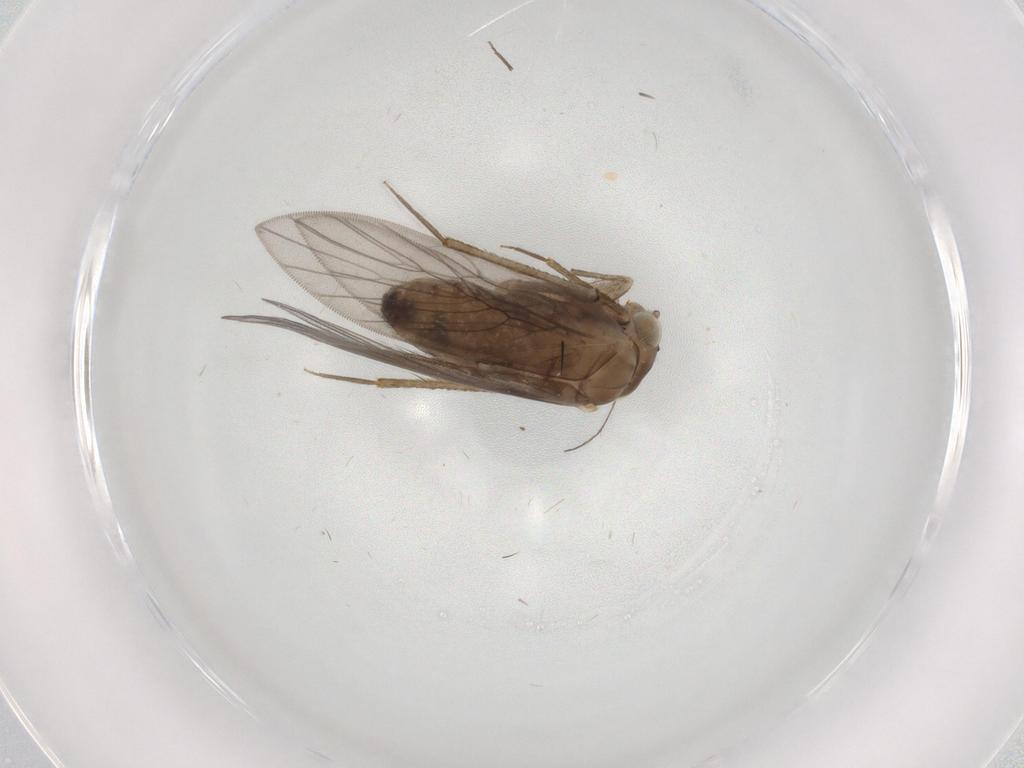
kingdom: Animalia
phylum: Arthropoda
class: Insecta
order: Psocodea
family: Lepidopsocidae
